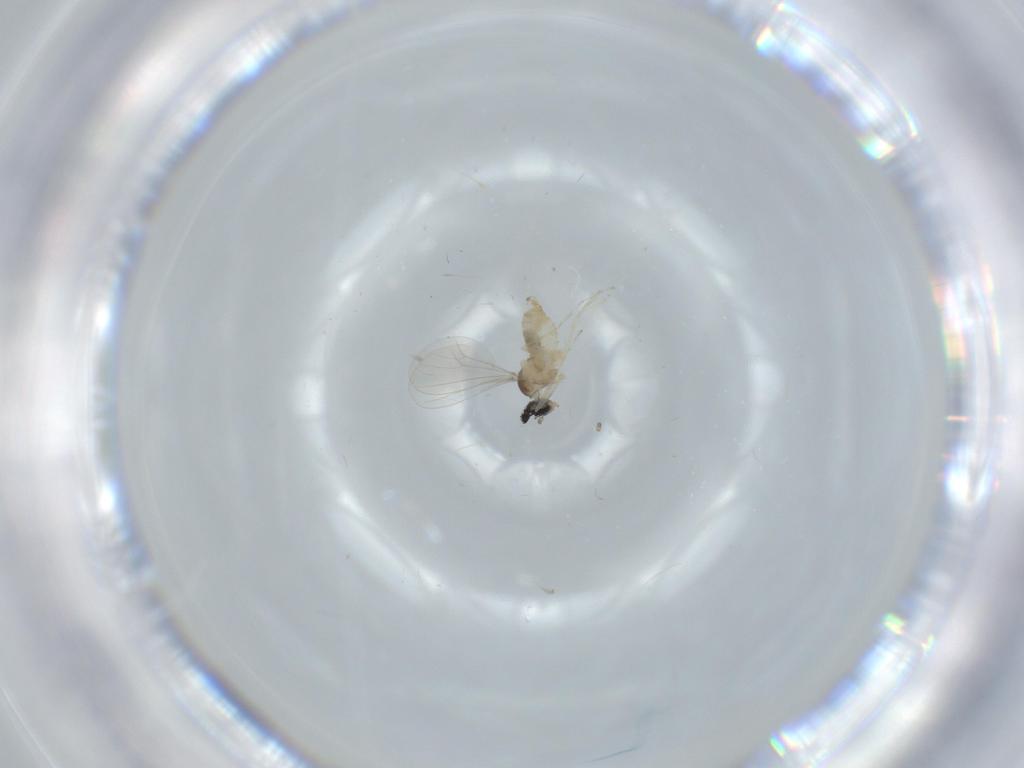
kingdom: Animalia
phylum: Arthropoda
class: Insecta
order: Diptera
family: Cecidomyiidae
